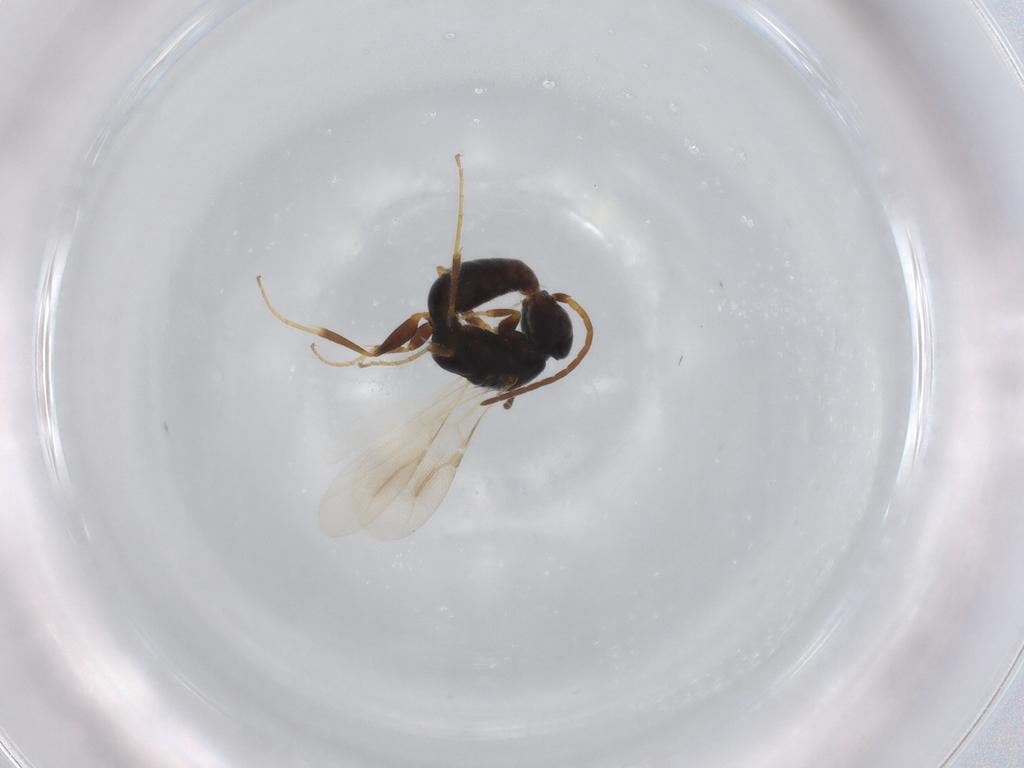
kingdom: Animalia
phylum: Arthropoda
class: Insecta
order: Hymenoptera
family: Bethylidae
